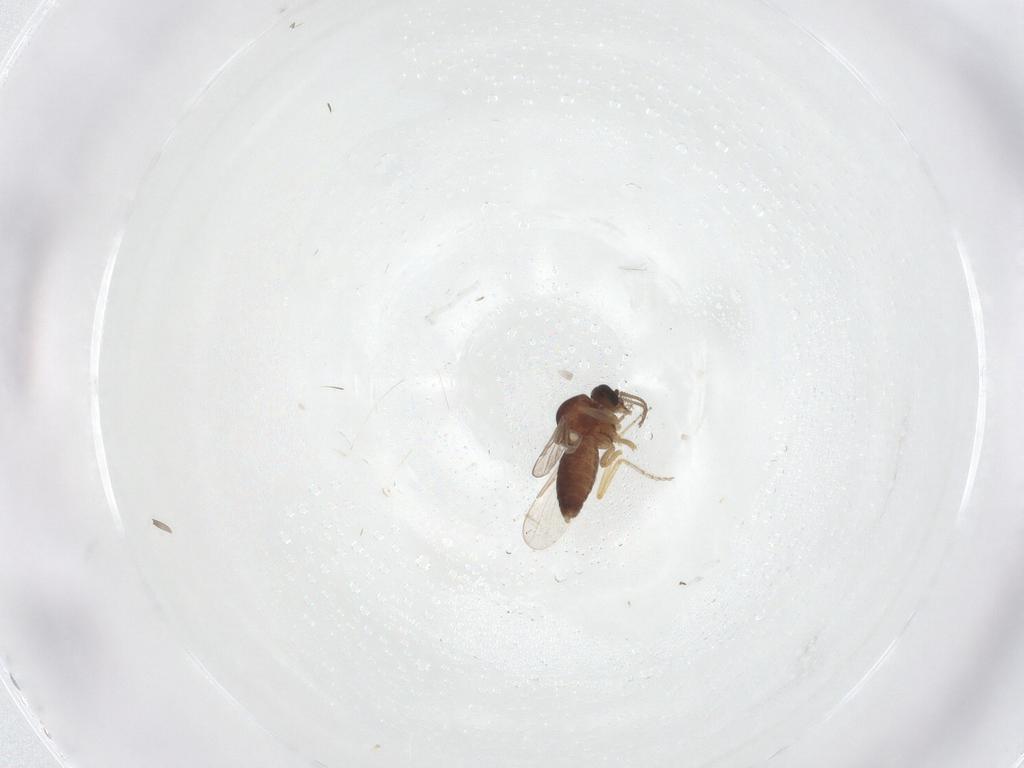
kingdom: Animalia
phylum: Arthropoda
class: Insecta
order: Diptera
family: Ceratopogonidae
